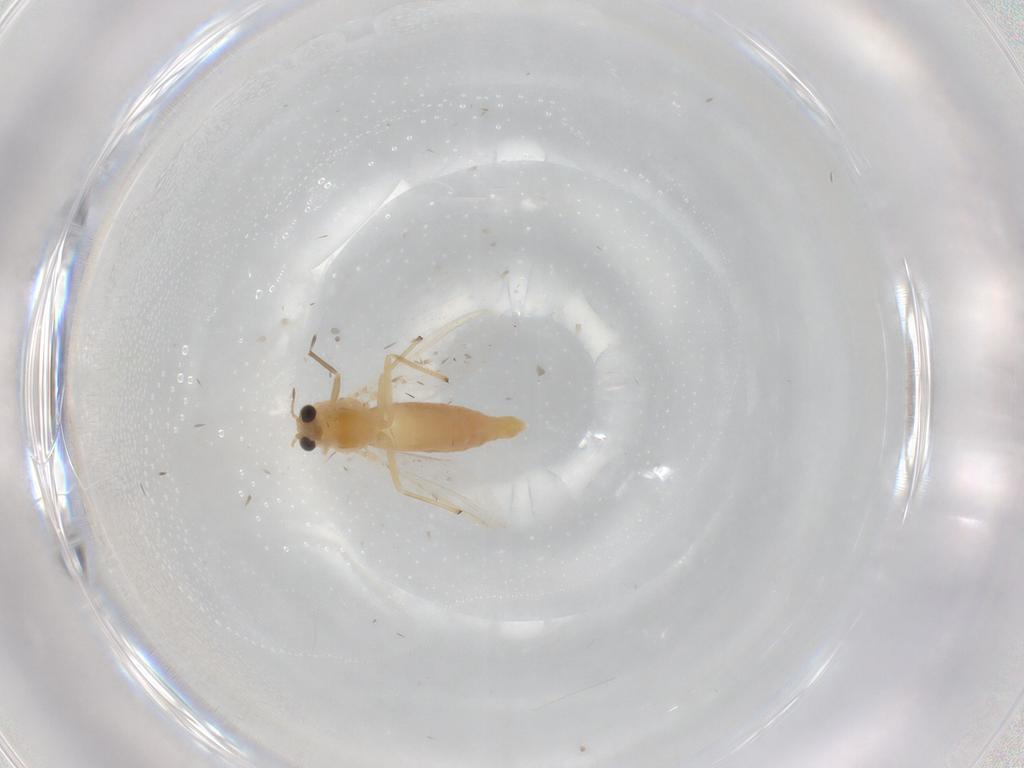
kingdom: Animalia
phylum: Arthropoda
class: Insecta
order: Diptera
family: Chironomidae
